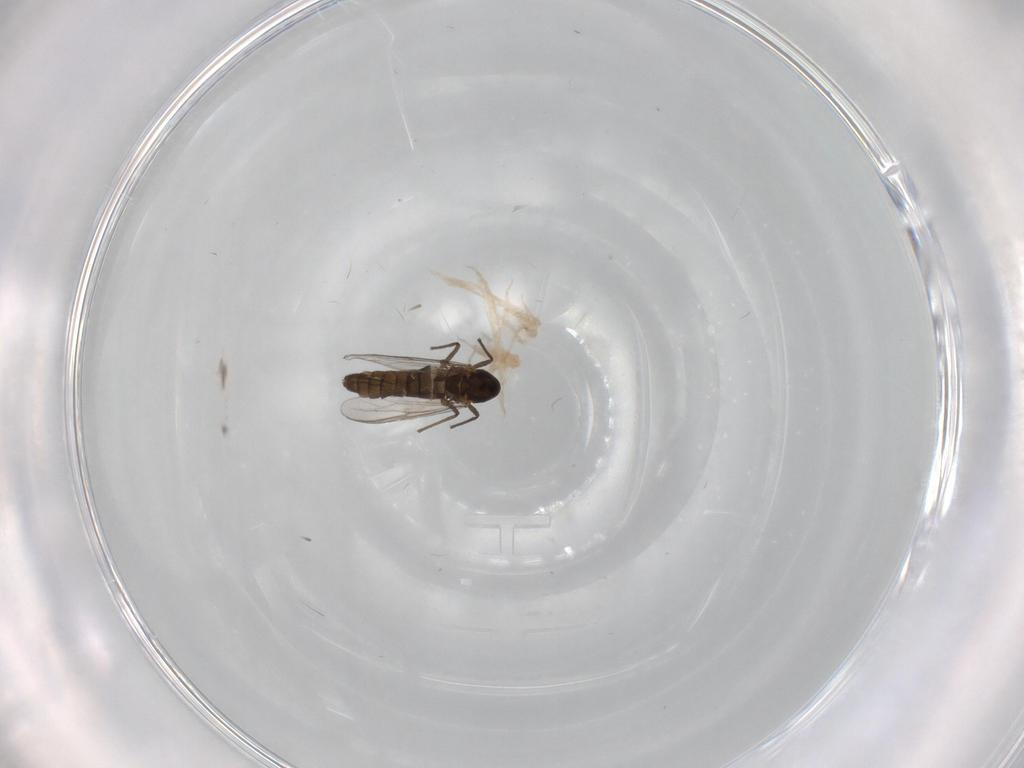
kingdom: Animalia
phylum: Arthropoda
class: Insecta
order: Diptera
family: Chironomidae
